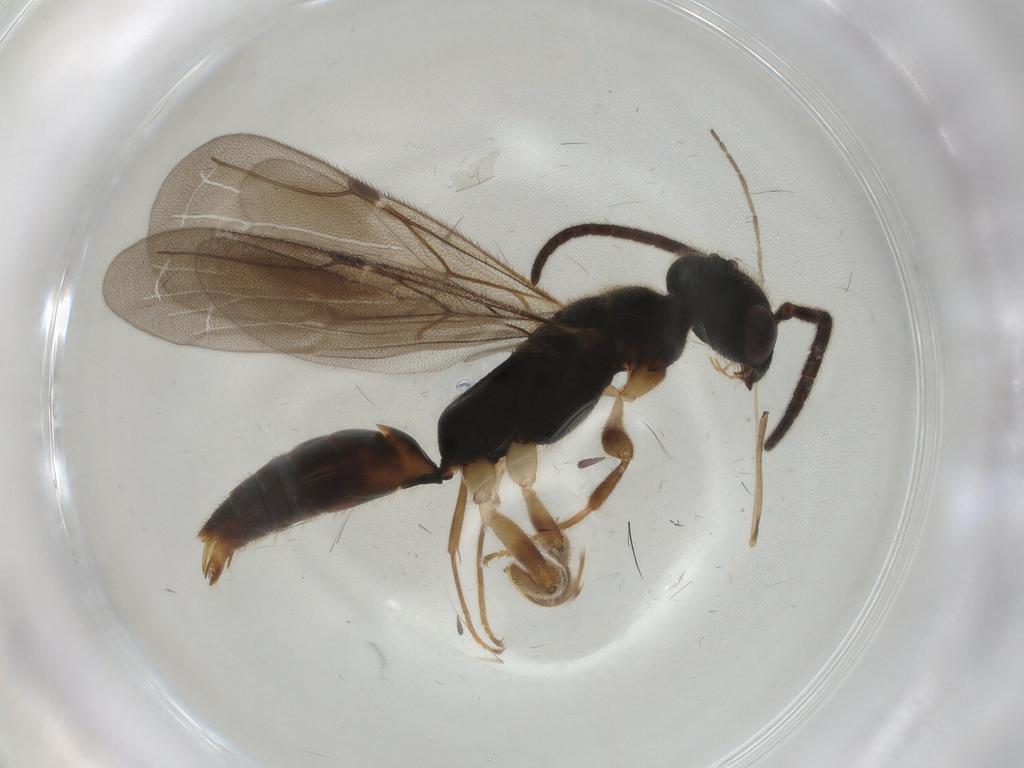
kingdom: Animalia
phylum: Arthropoda
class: Insecta
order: Hymenoptera
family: Bethylidae
